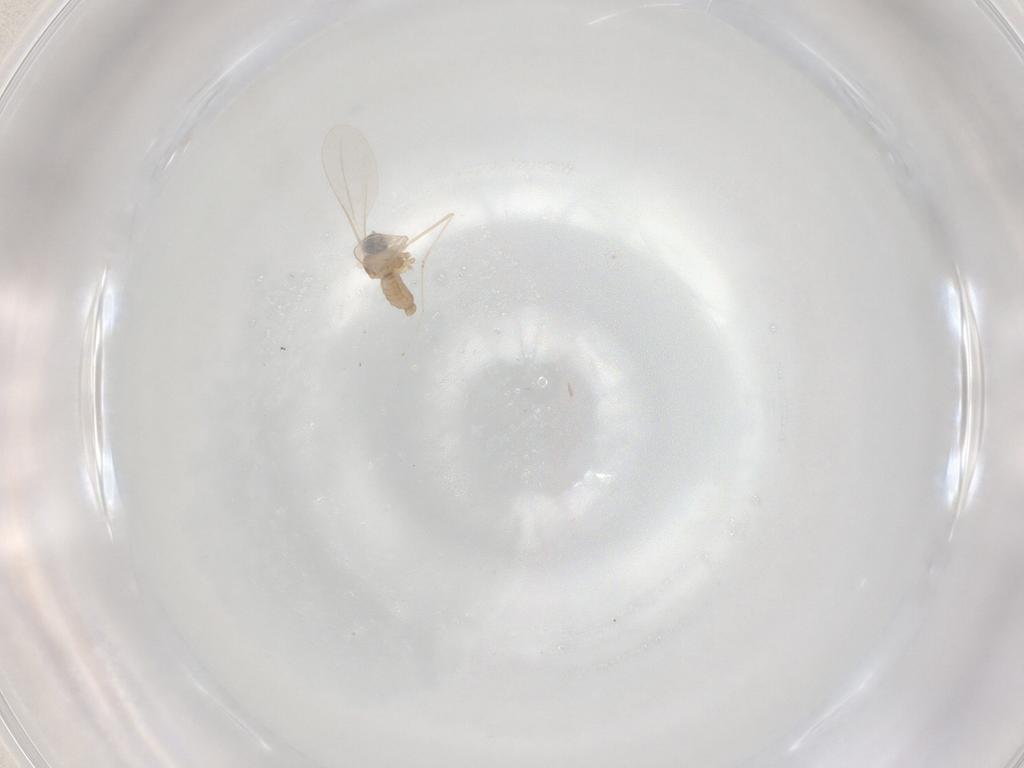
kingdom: Animalia
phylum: Arthropoda
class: Insecta
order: Diptera
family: Cecidomyiidae
